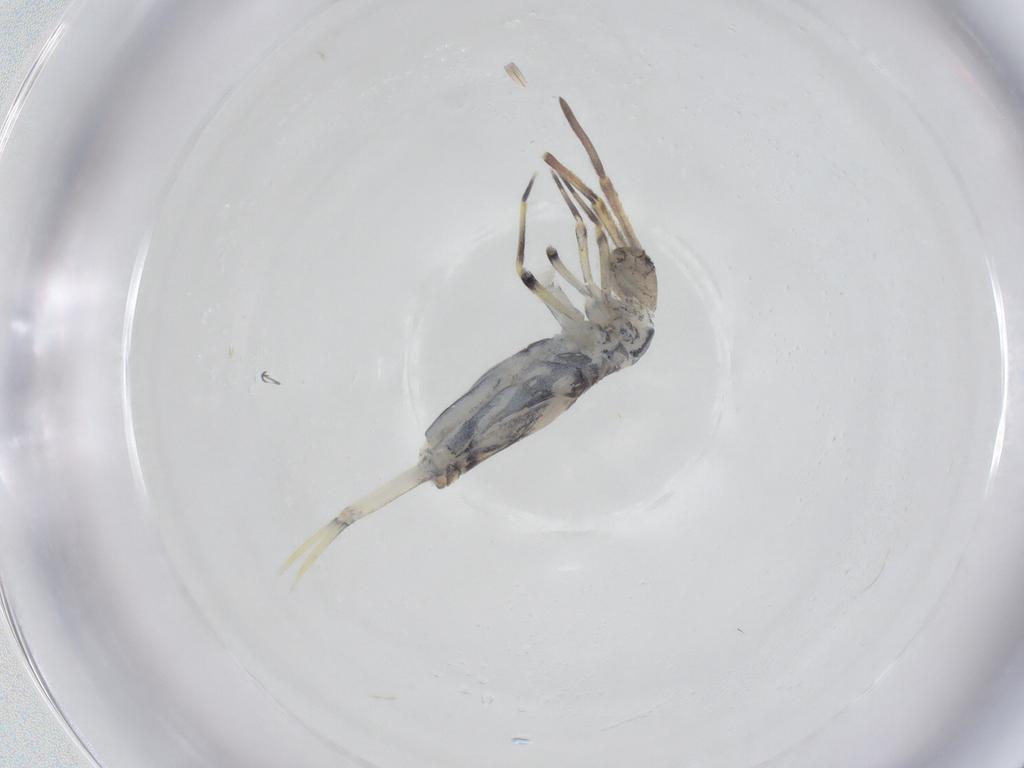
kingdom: Animalia
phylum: Arthropoda
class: Collembola
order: Entomobryomorpha
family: Entomobryidae
